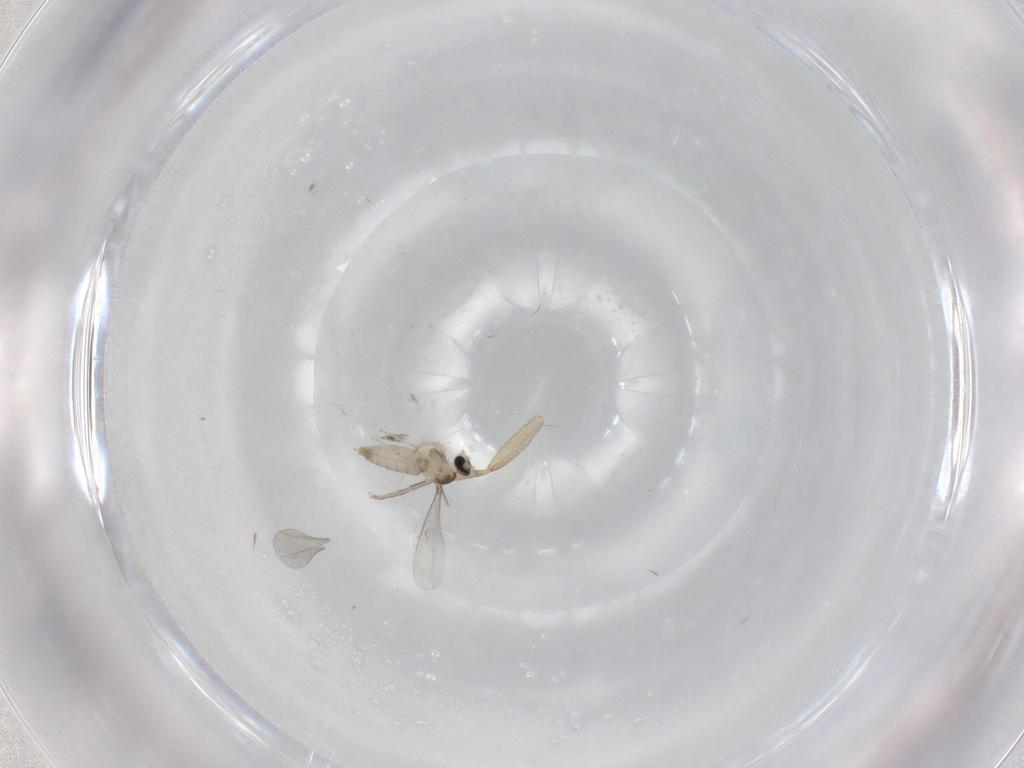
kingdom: Animalia
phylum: Arthropoda
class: Insecta
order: Diptera
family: Cecidomyiidae
